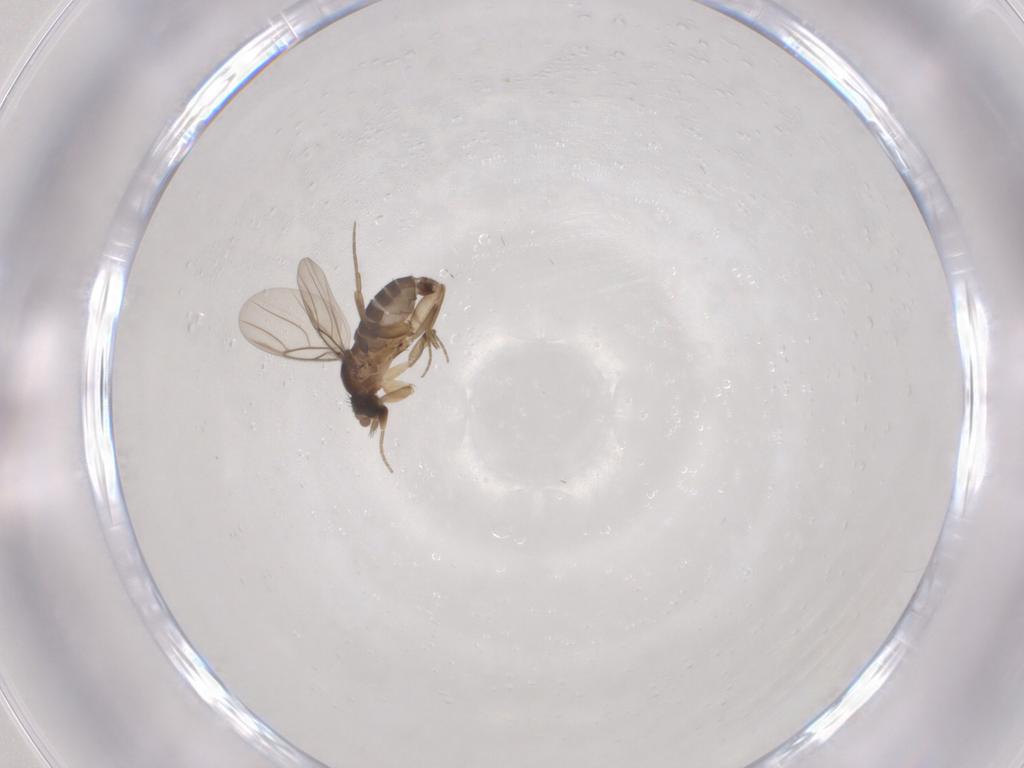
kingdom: Animalia
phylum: Arthropoda
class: Insecta
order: Diptera
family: Phoridae
